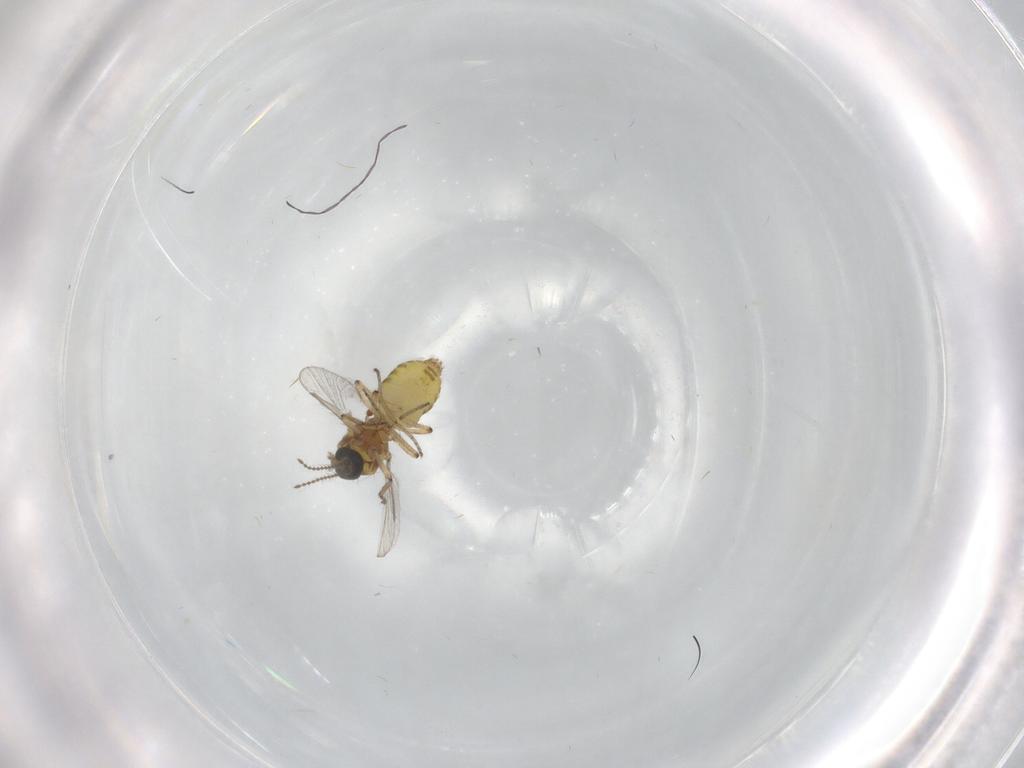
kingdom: Animalia
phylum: Arthropoda
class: Insecta
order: Diptera
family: Ceratopogonidae
